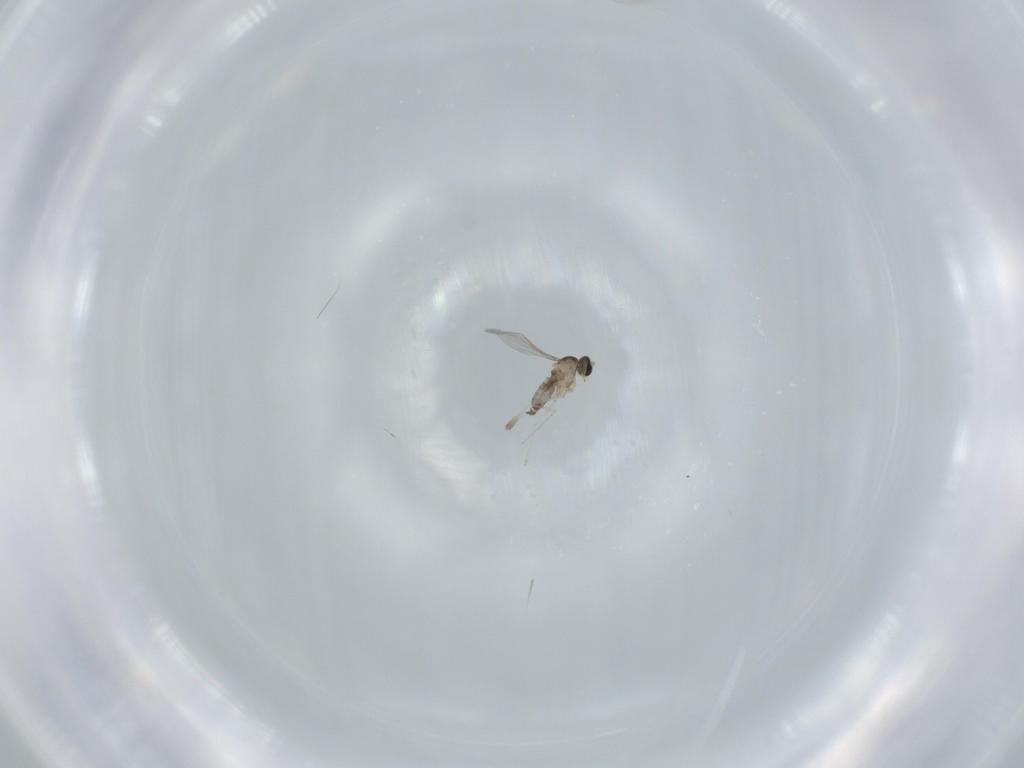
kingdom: Animalia
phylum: Arthropoda
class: Insecta
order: Diptera
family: Cecidomyiidae
